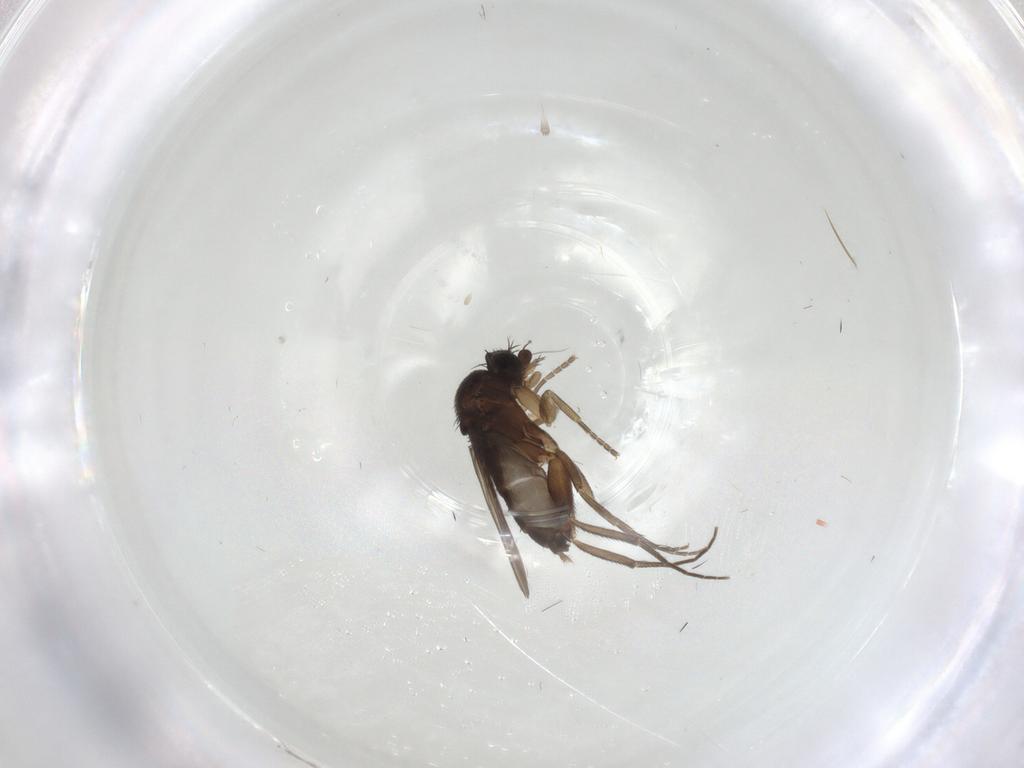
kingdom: Animalia
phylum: Arthropoda
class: Insecta
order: Diptera
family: Phoridae
